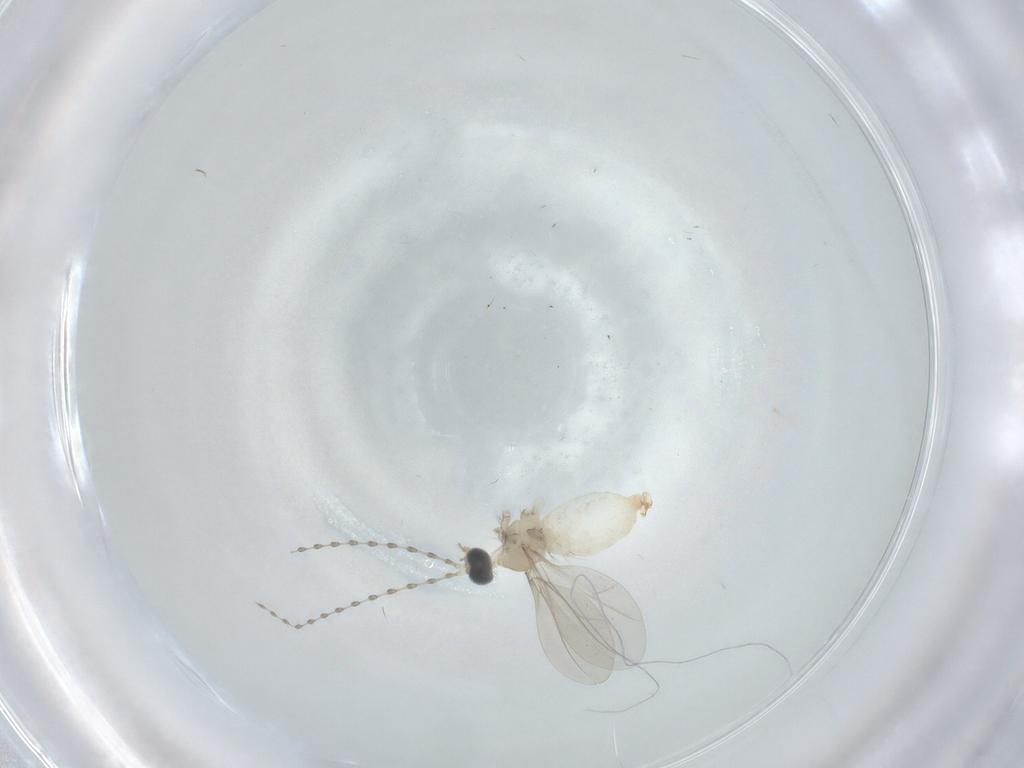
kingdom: Animalia
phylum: Arthropoda
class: Insecta
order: Diptera
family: Cecidomyiidae
